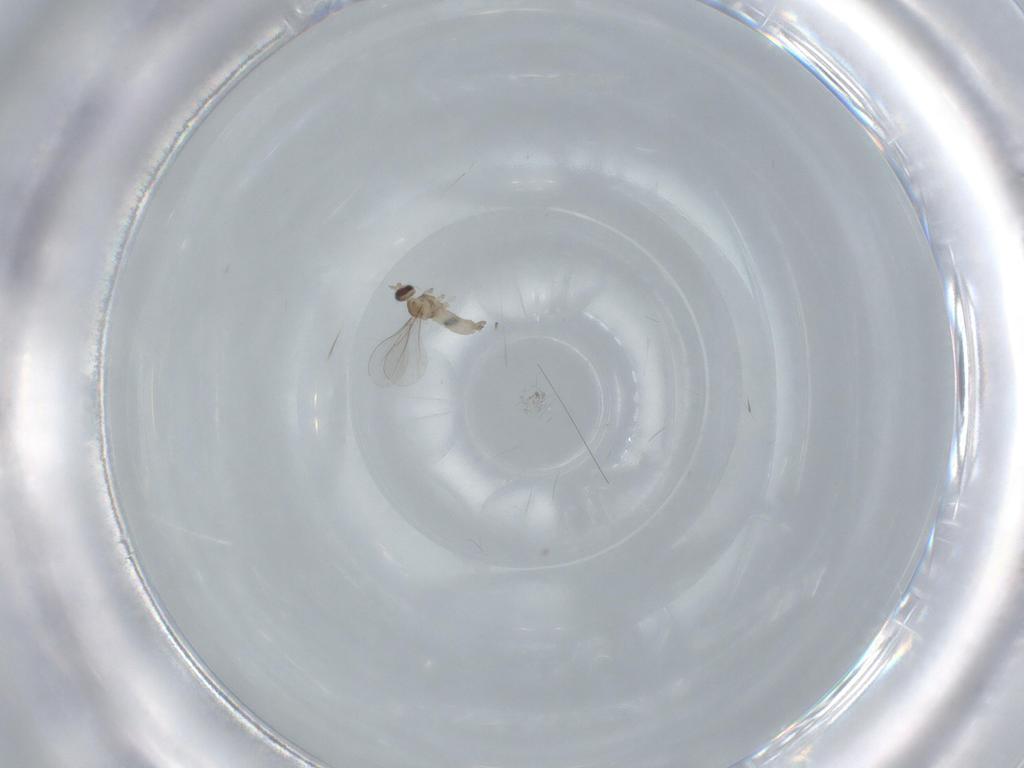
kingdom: Animalia
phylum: Arthropoda
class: Insecta
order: Diptera
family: Cecidomyiidae
